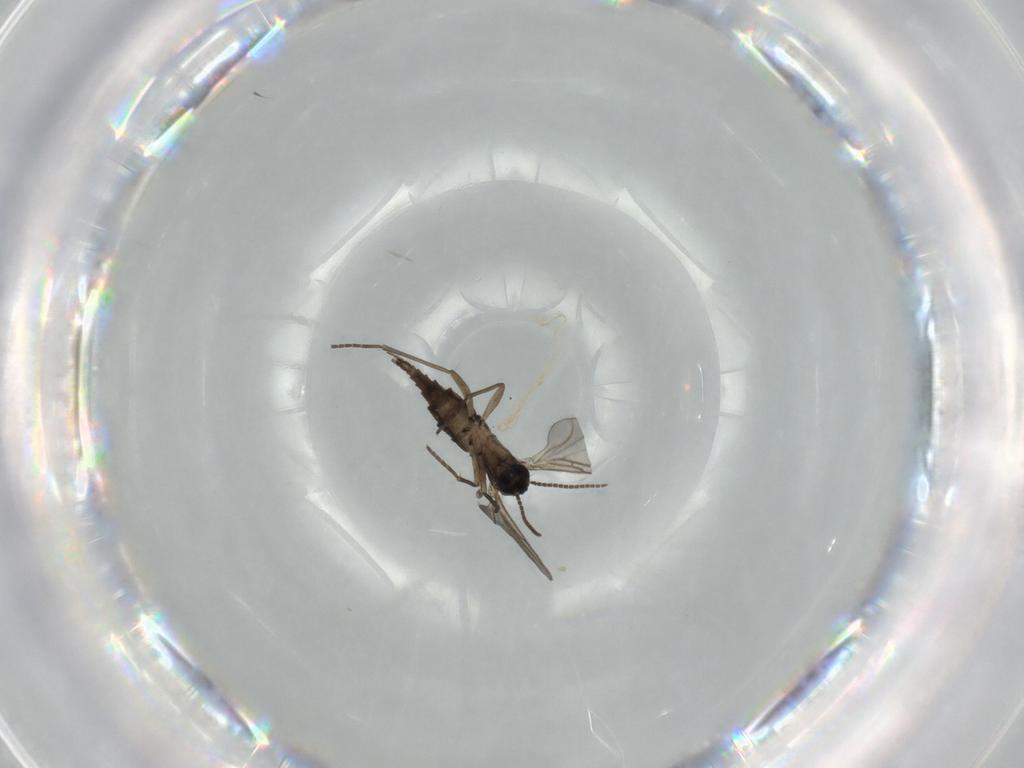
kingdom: Animalia
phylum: Arthropoda
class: Insecta
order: Diptera
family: Sciaridae
